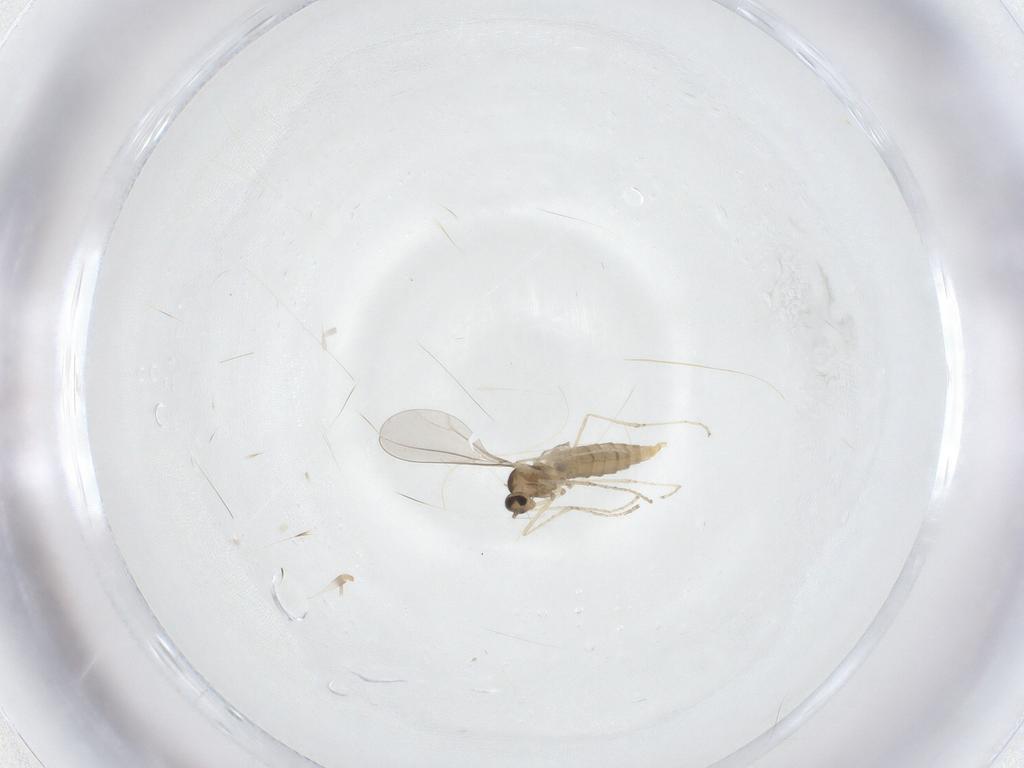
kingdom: Animalia
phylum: Arthropoda
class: Insecta
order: Diptera
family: Cecidomyiidae
